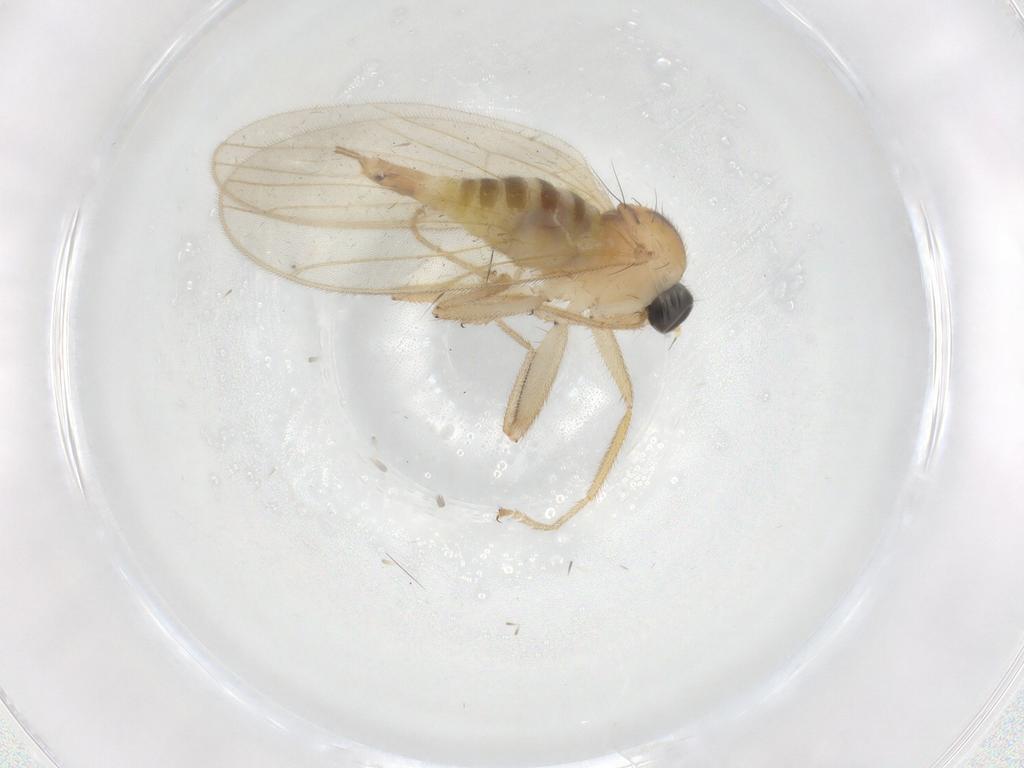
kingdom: Animalia
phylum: Arthropoda
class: Insecta
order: Diptera
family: Hybotidae
